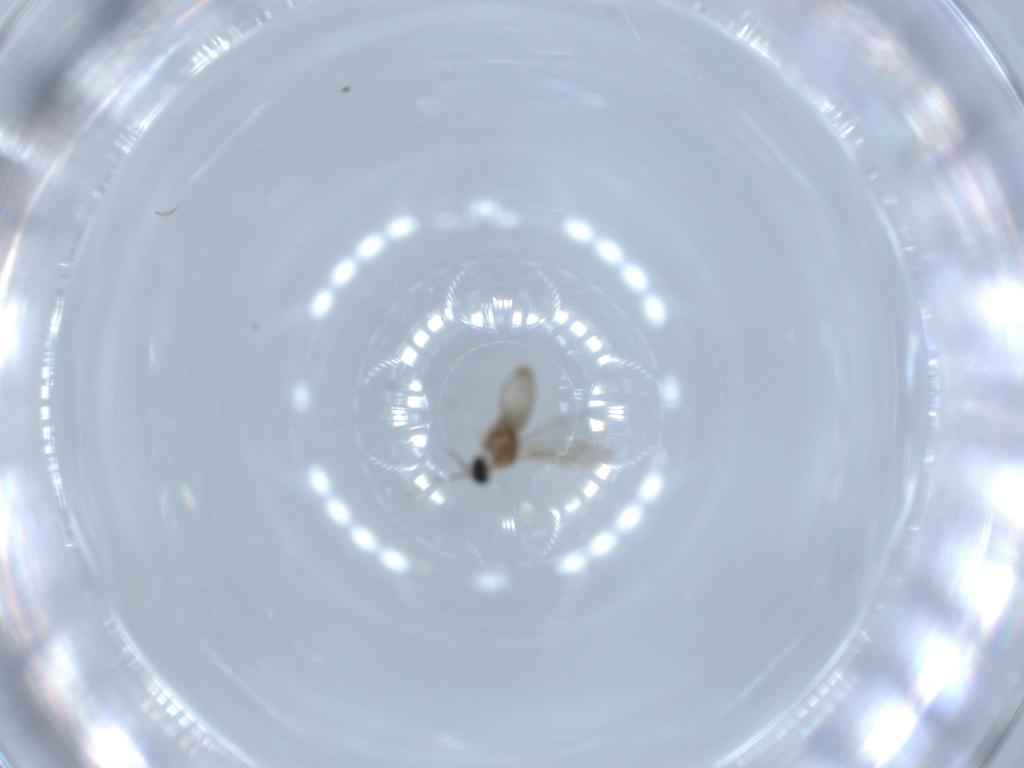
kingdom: Animalia
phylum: Arthropoda
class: Insecta
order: Diptera
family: Cecidomyiidae
